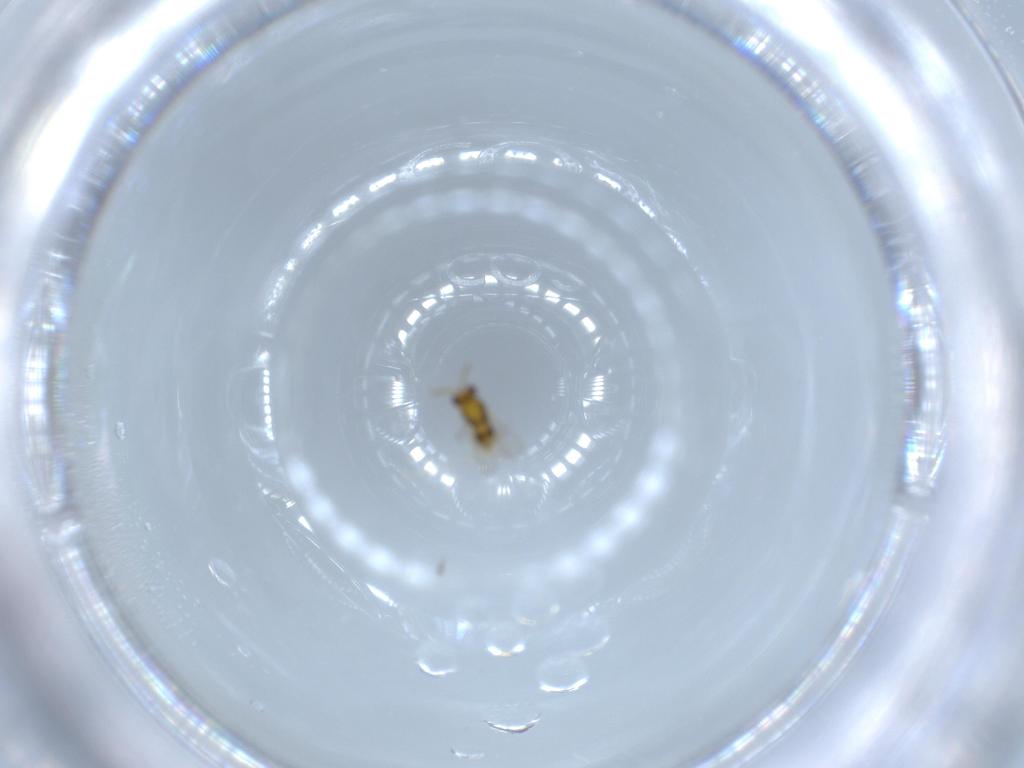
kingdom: Animalia
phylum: Arthropoda
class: Insecta
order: Hymenoptera
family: Aphelinidae
